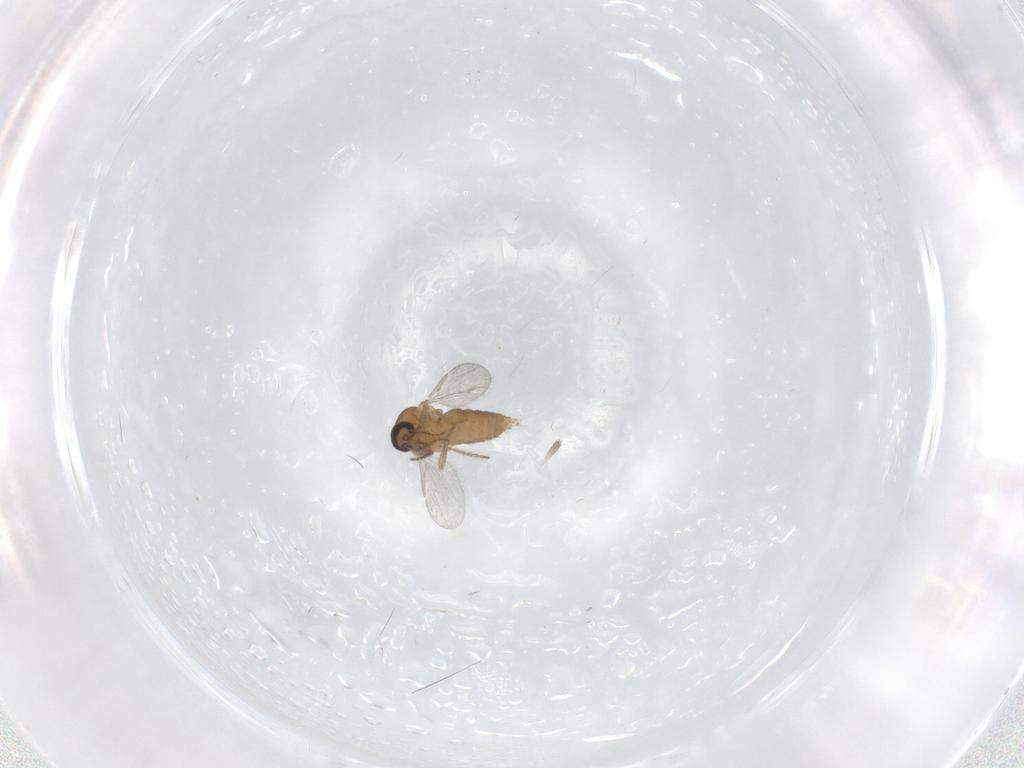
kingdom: Animalia
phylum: Arthropoda
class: Insecta
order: Diptera
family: Ceratopogonidae
